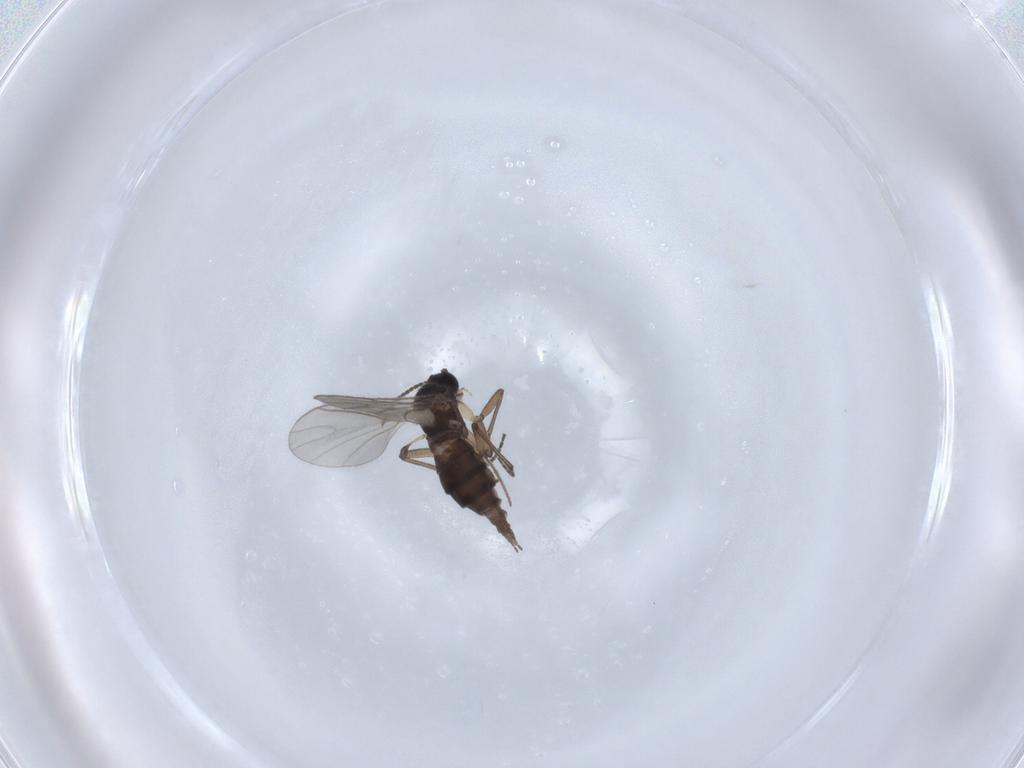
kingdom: Animalia
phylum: Arthropoda
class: Insecta
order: Diptera
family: Sciaridae
